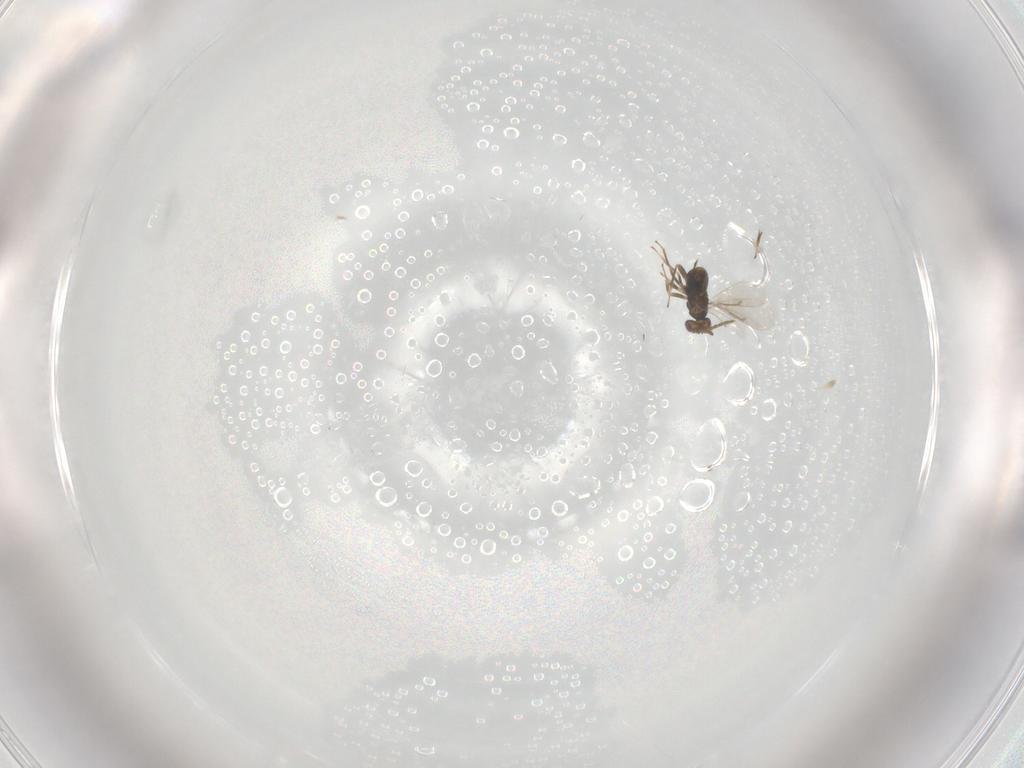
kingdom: Animalia
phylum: Arthropoda
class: Insecta
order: Hymenoptera
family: Aphelinidae
